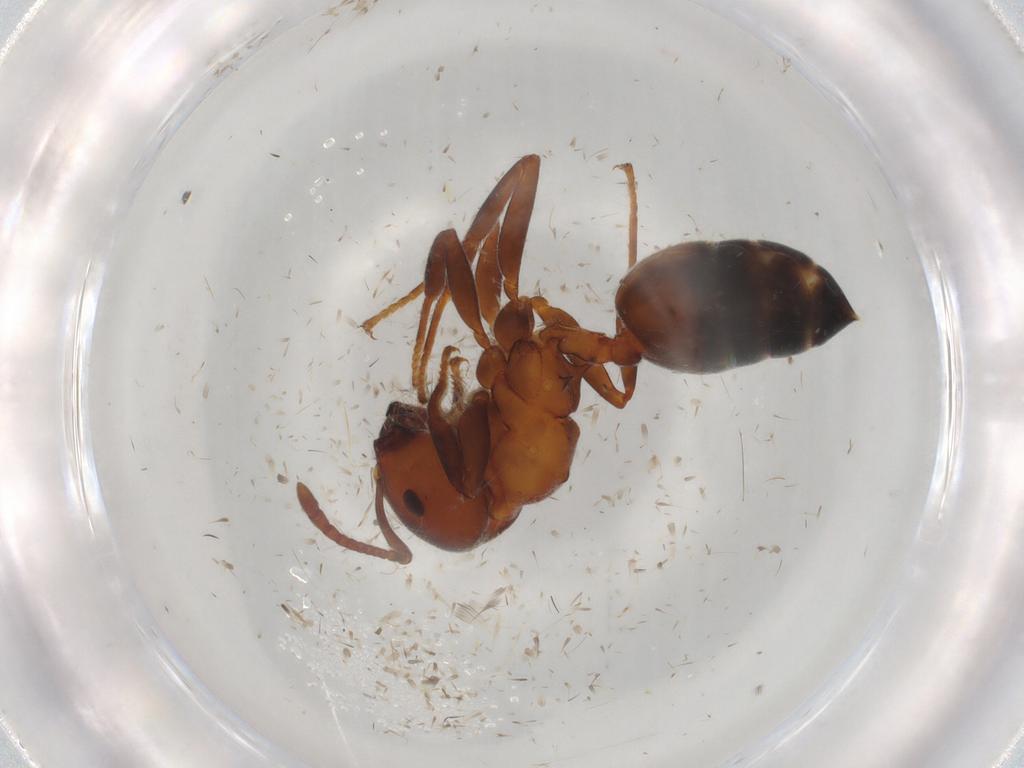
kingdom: Animalia
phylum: Arthropoda
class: Insecta
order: Hymenoptera
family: Formicidae
